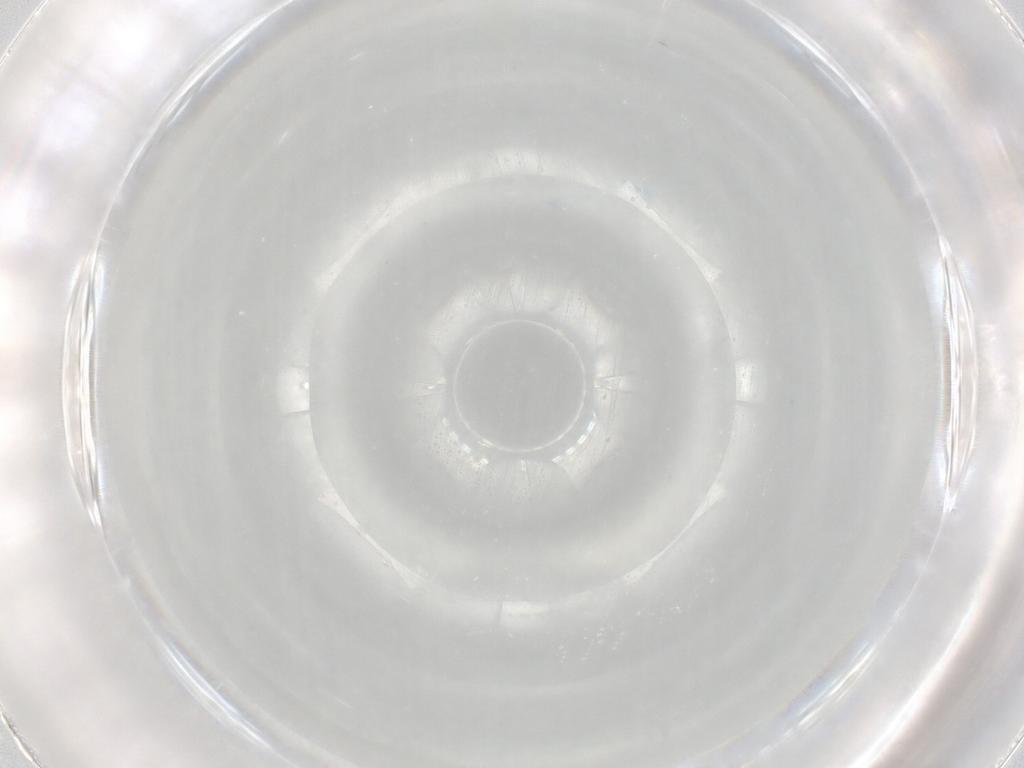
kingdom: Animalia
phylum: Arthropoda
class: Insecta
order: Diptera
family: Chironomidae
